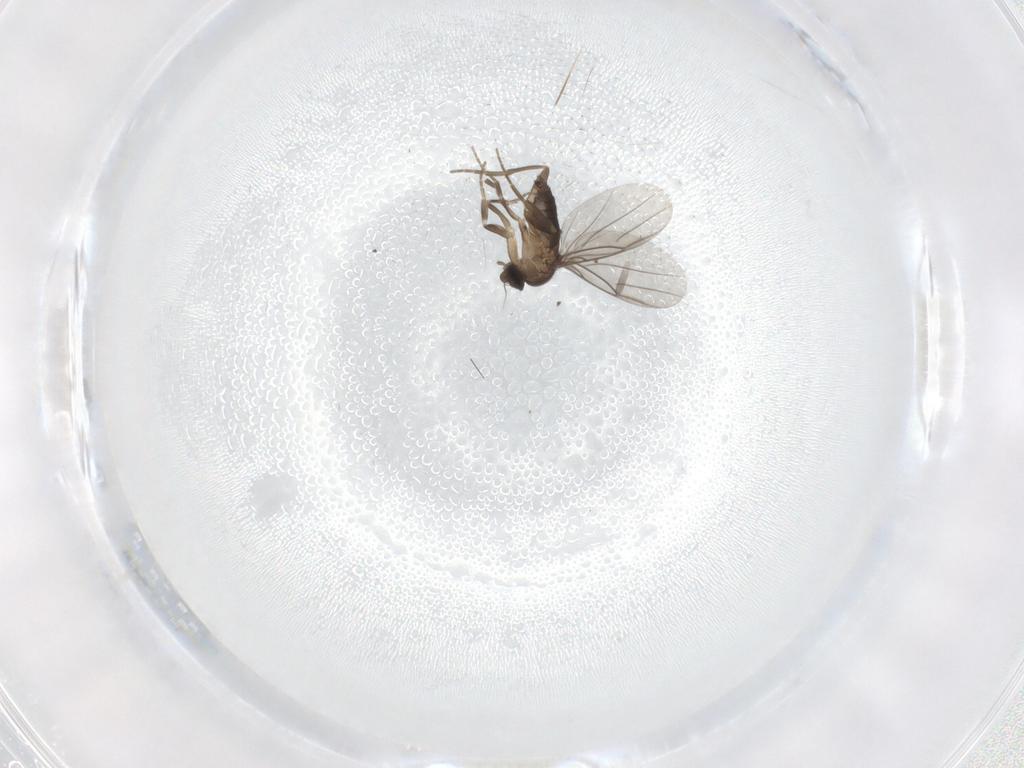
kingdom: Animalia
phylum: Arthropoda
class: Insecta
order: Diptera
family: Phoridae
